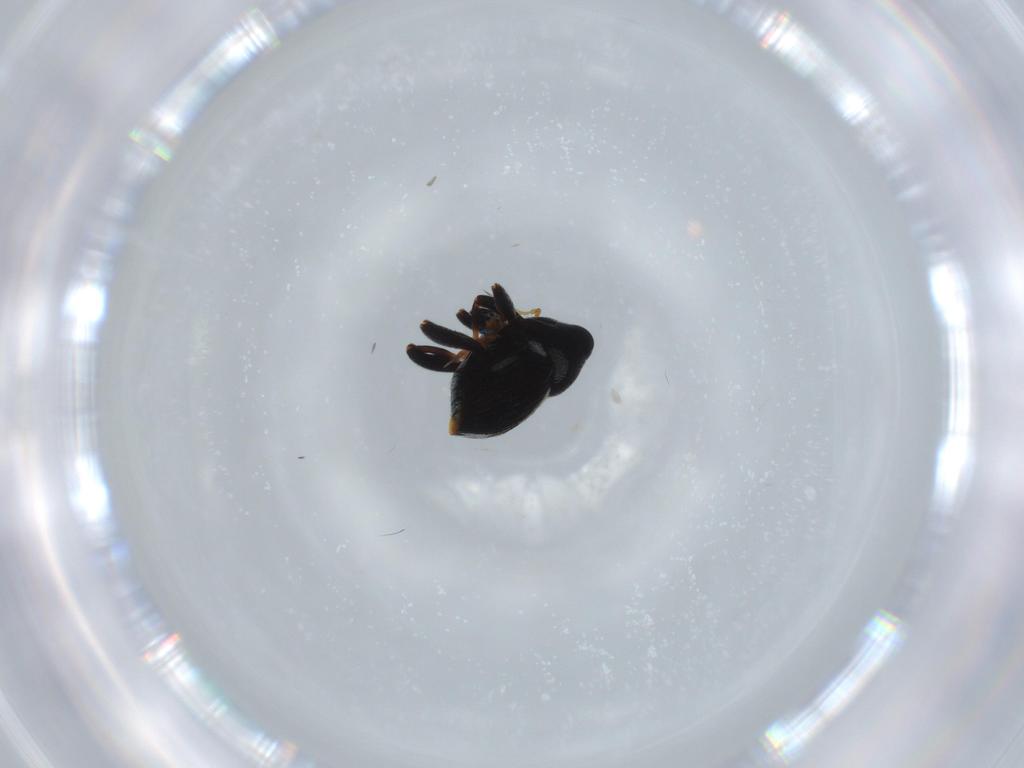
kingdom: Animalia
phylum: Arthropoda
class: Insecta
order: Coleoptera
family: Curculionidae
